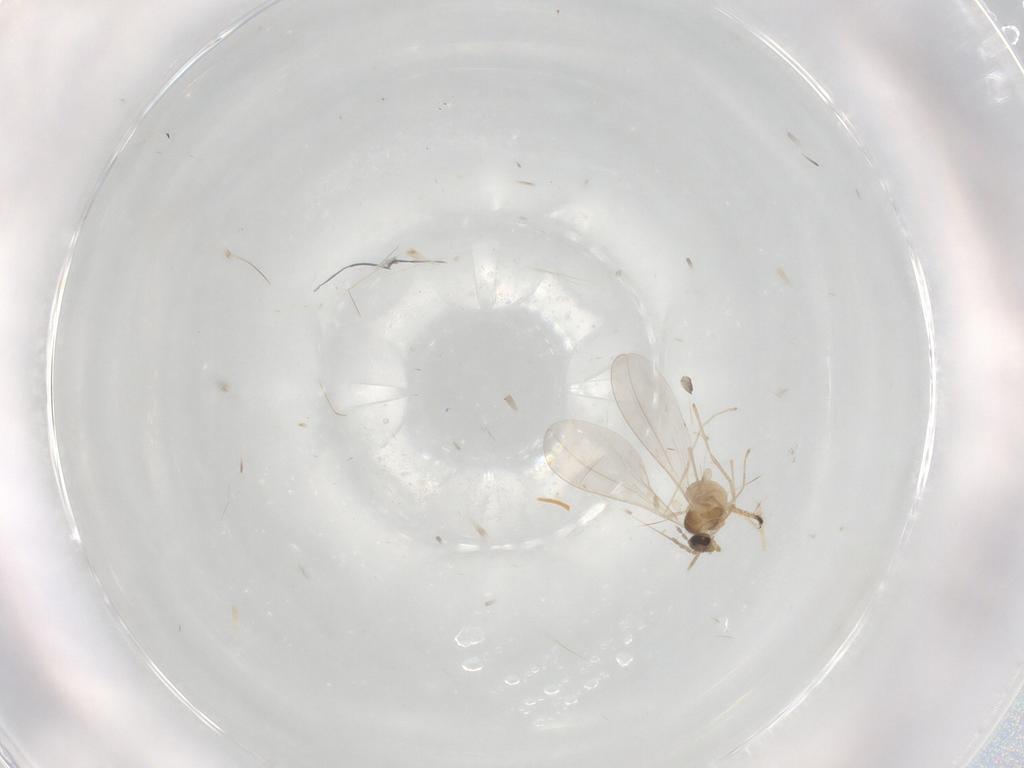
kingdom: Animalia
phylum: Arthropoda
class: Insecta
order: Diptera
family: Cecidomyiidae
